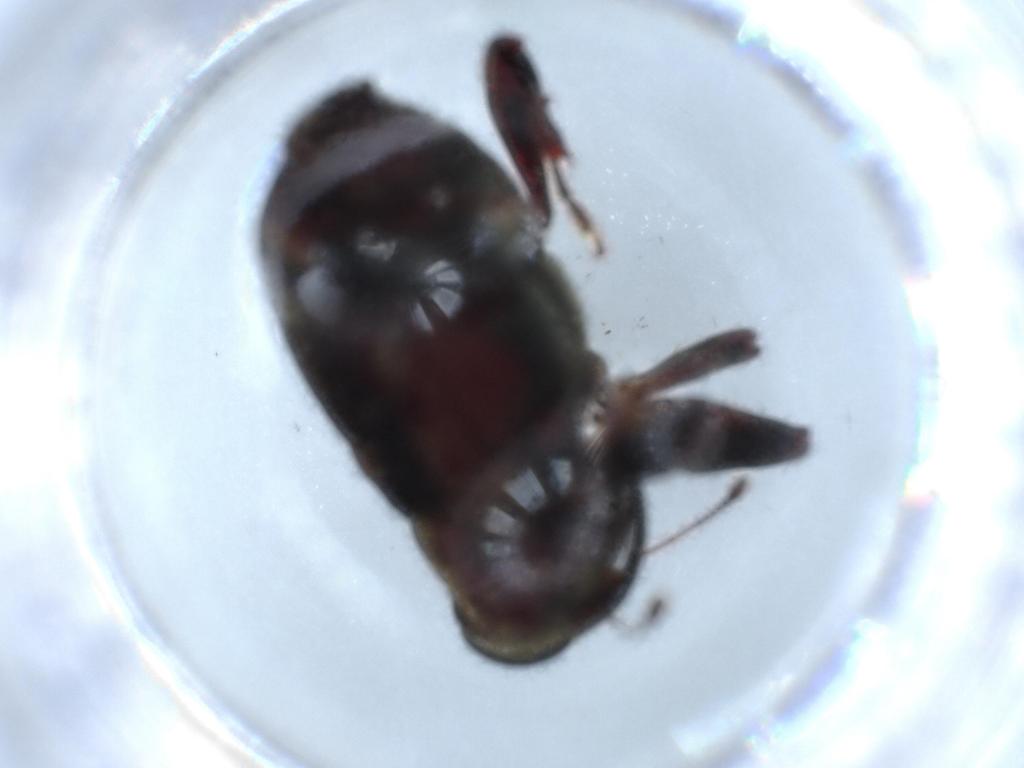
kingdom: Animalia
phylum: Arthropoda
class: Insecta
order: Coleoptera
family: Curculionidae
